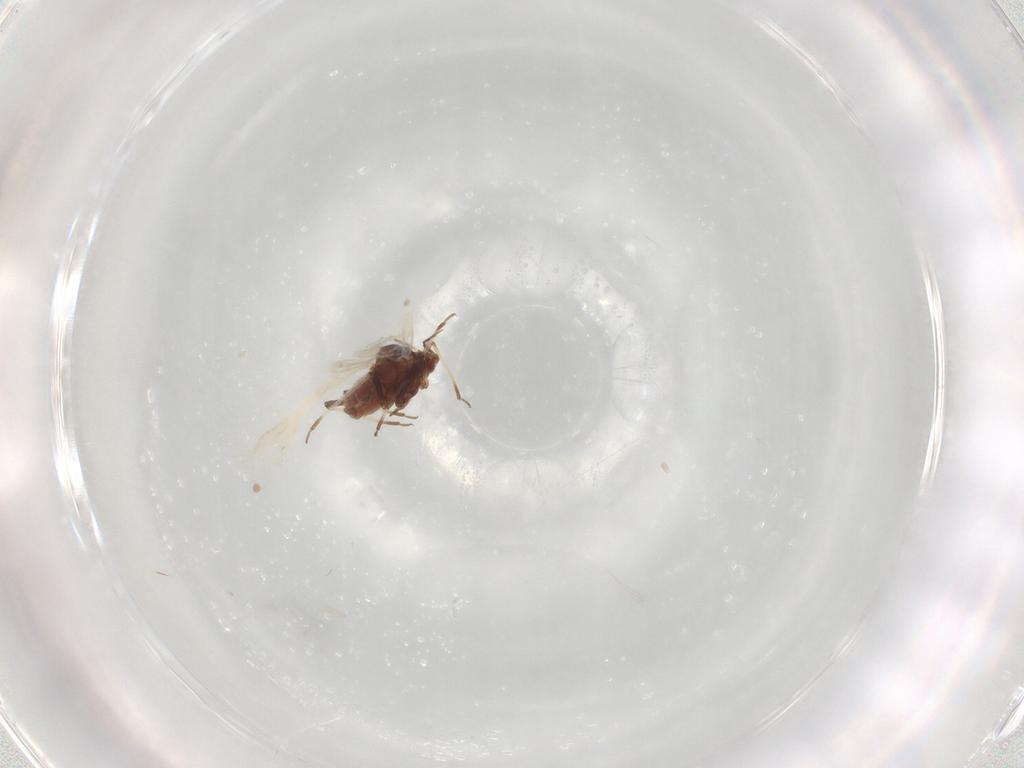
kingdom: Animalia
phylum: Arthropoda
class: Insecta
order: Hemiptera
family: Aphididae
